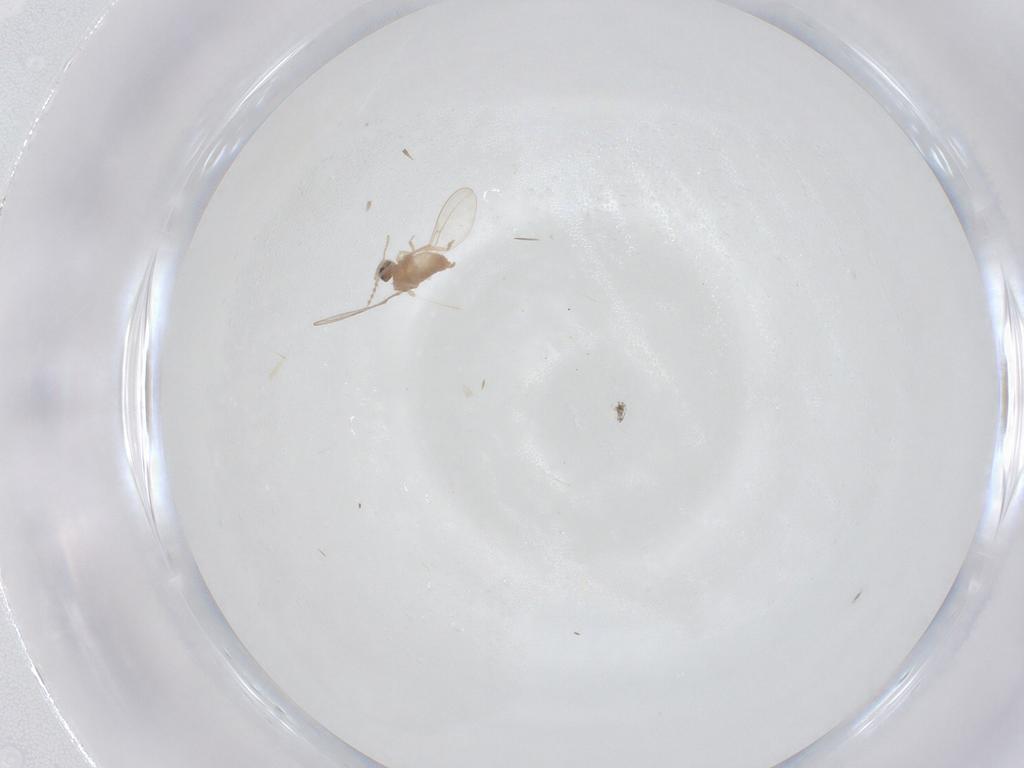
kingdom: Animalia
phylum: Arthropoda
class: Insecta
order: Diptera
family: Cecidomyiidae
